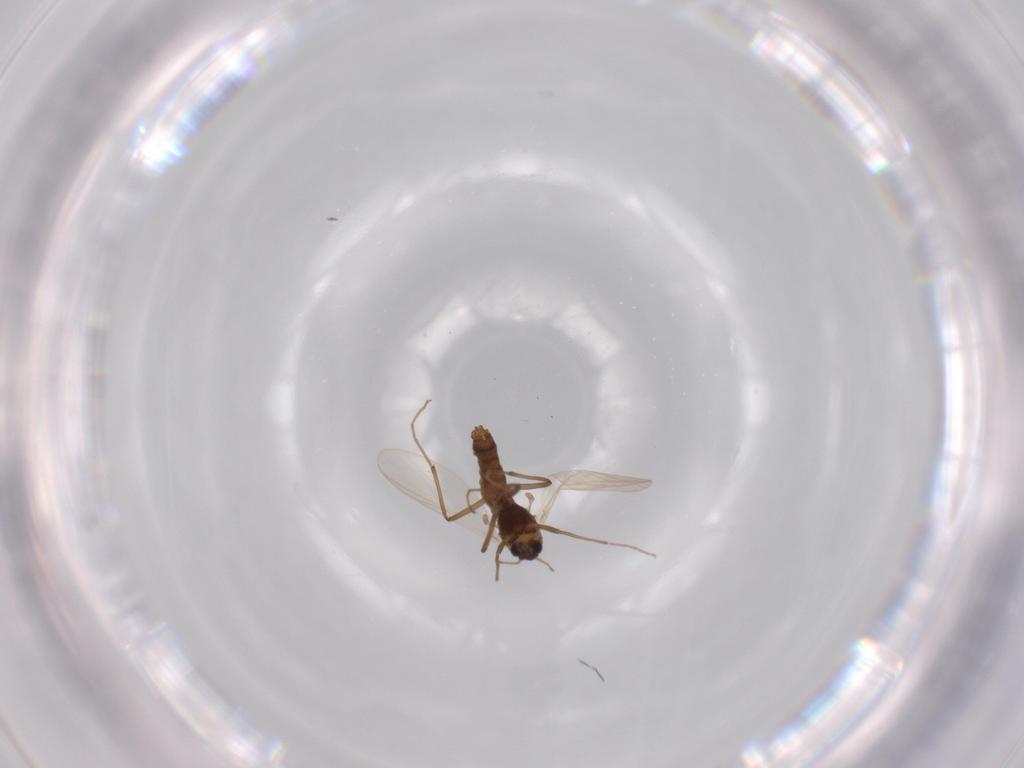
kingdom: Animalia
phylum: Arthropoda
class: Insecta
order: Diptera
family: Chironomidae
